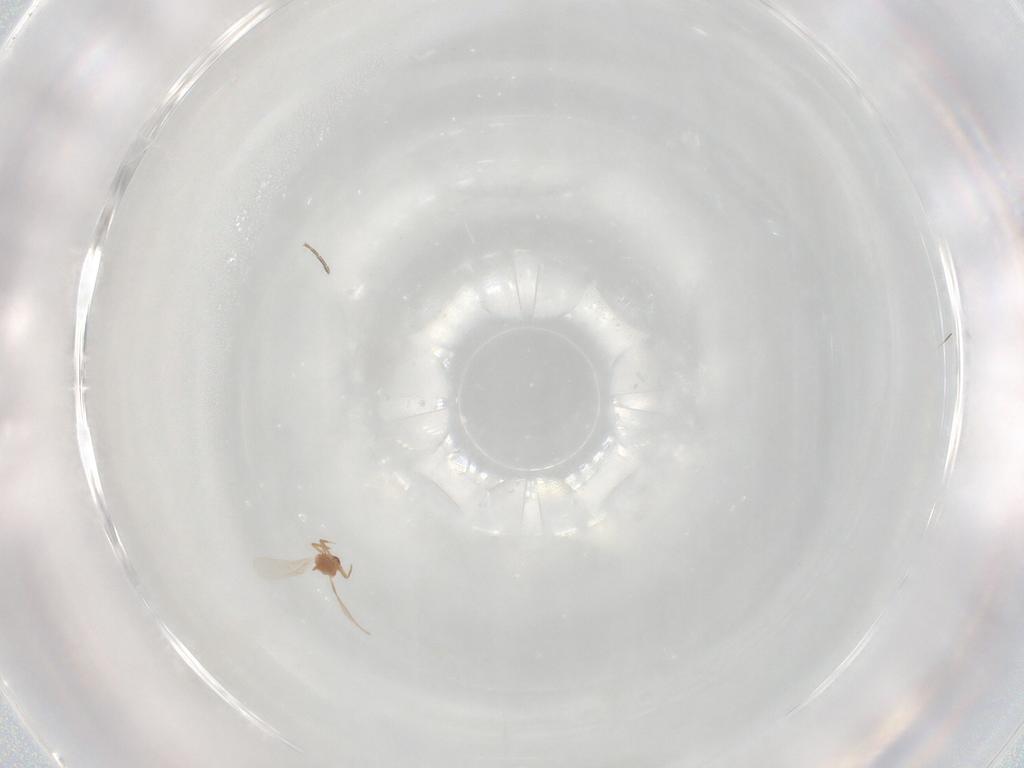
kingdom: Animalia
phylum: Arthropoda
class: Insecta
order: Hemiptera
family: Cicadellidae
